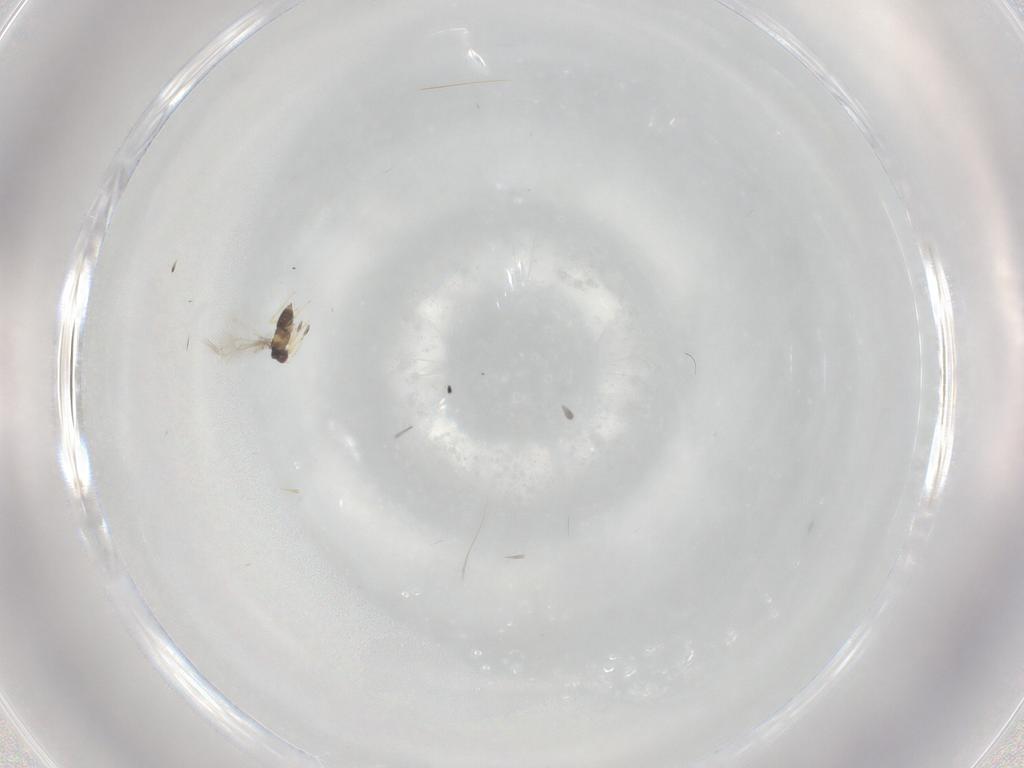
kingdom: Animalia
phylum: Arthropoda
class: Insecta
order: Hymenoptera
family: Mymaridae
